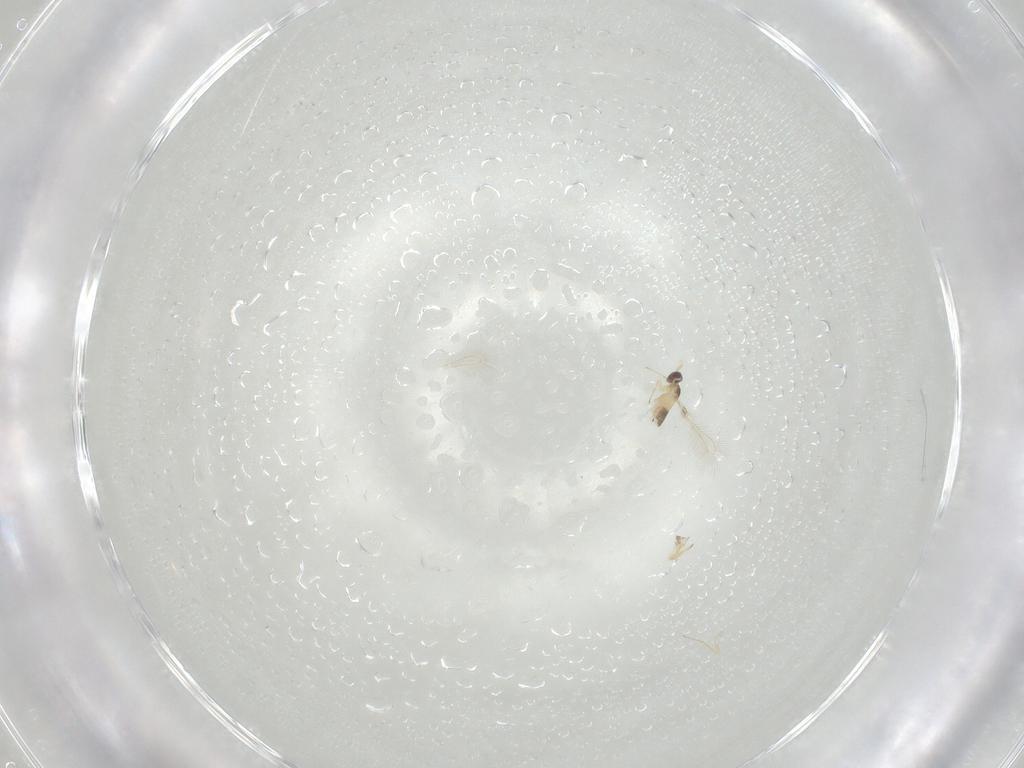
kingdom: Animalia
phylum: Arthropoda
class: Insecta
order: Hymenoptera
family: Mymaridae
